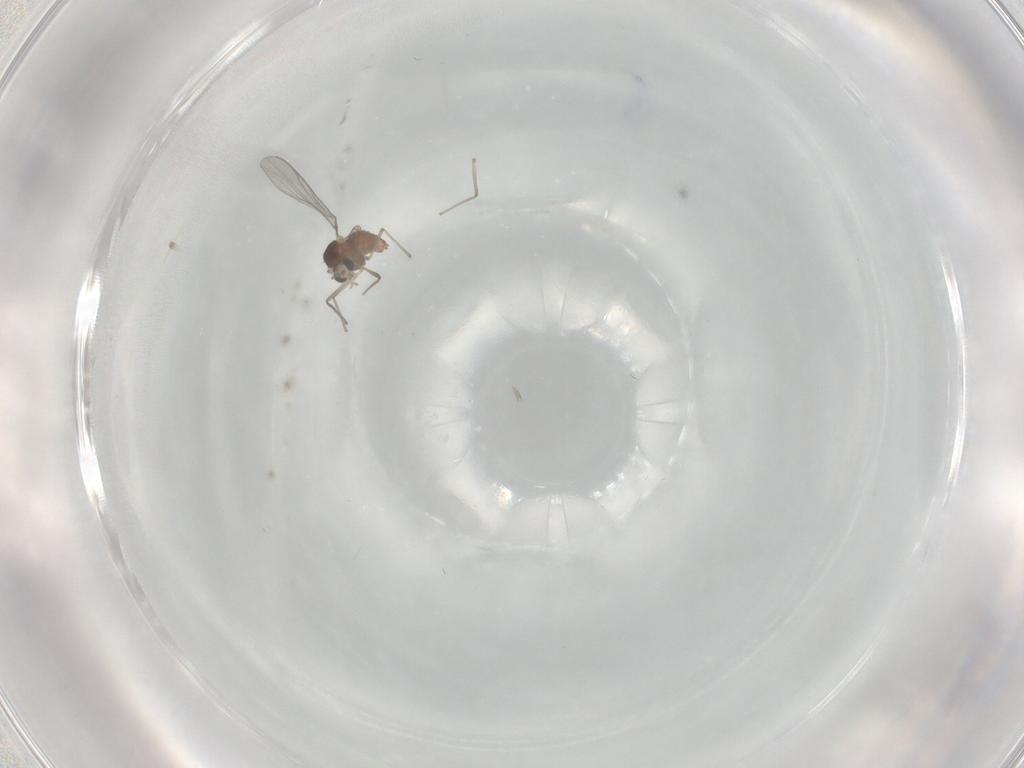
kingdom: Animalia
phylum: Arthropoda
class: Insecta
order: Diptera
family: Phoridae
